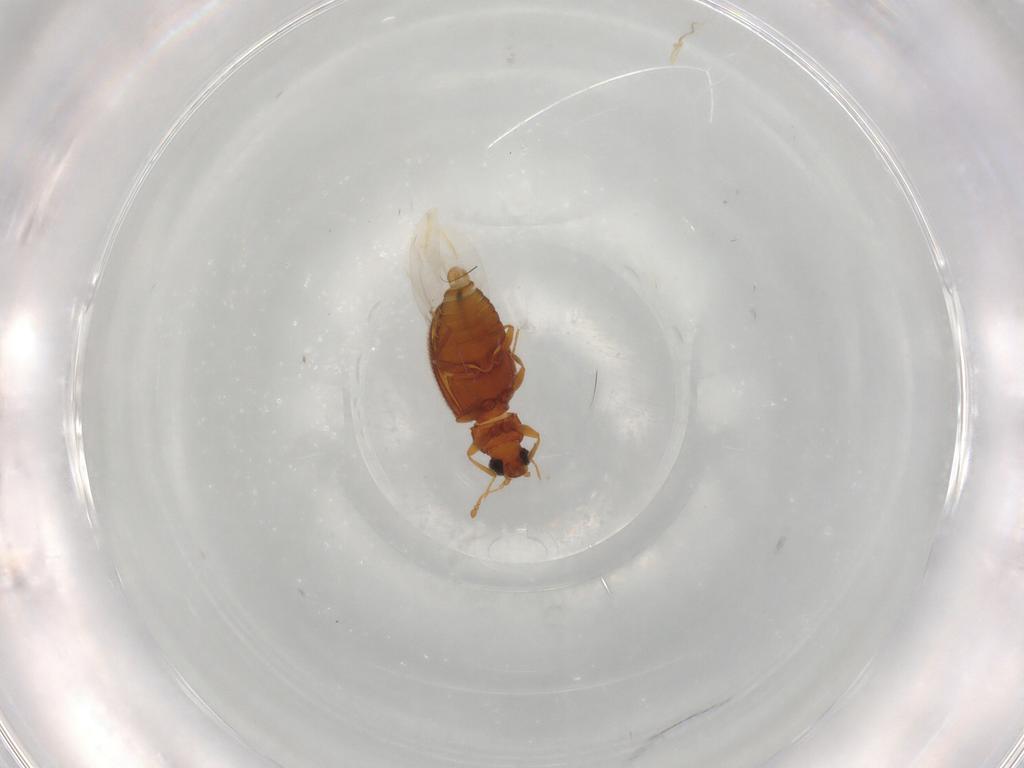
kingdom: Animalia
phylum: Arthropoda
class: Insecta
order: Coleoptera
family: Latridiidae
